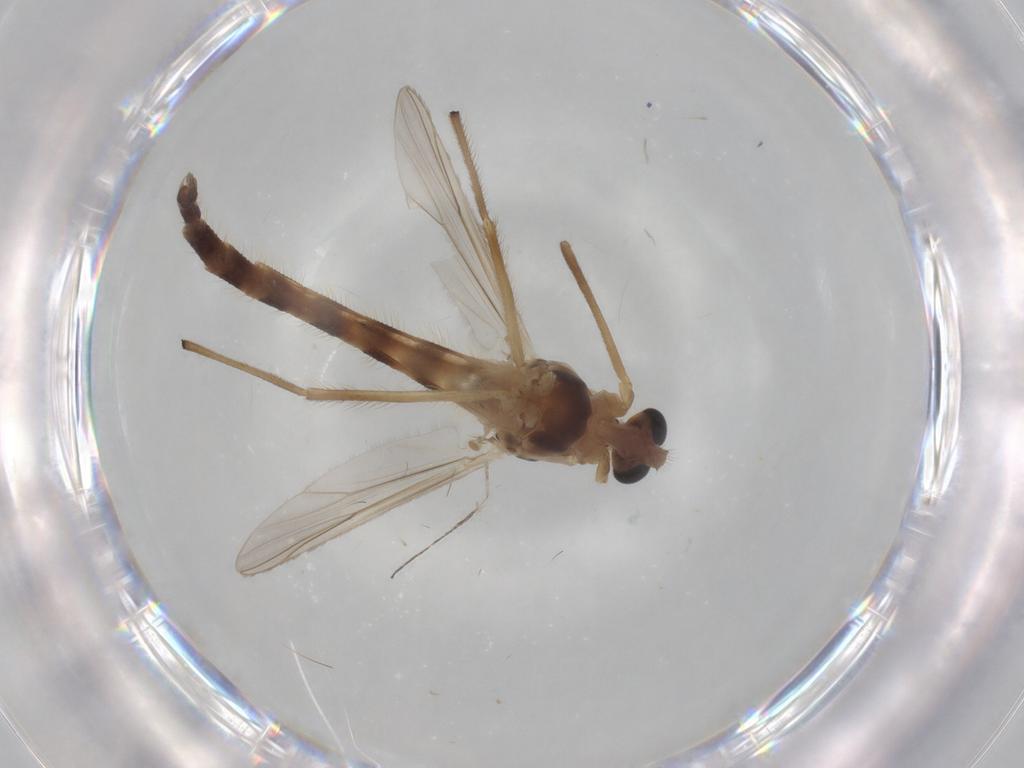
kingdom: Animalia
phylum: Arthropoda
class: Insecta
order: Diptera
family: Chironomidae
